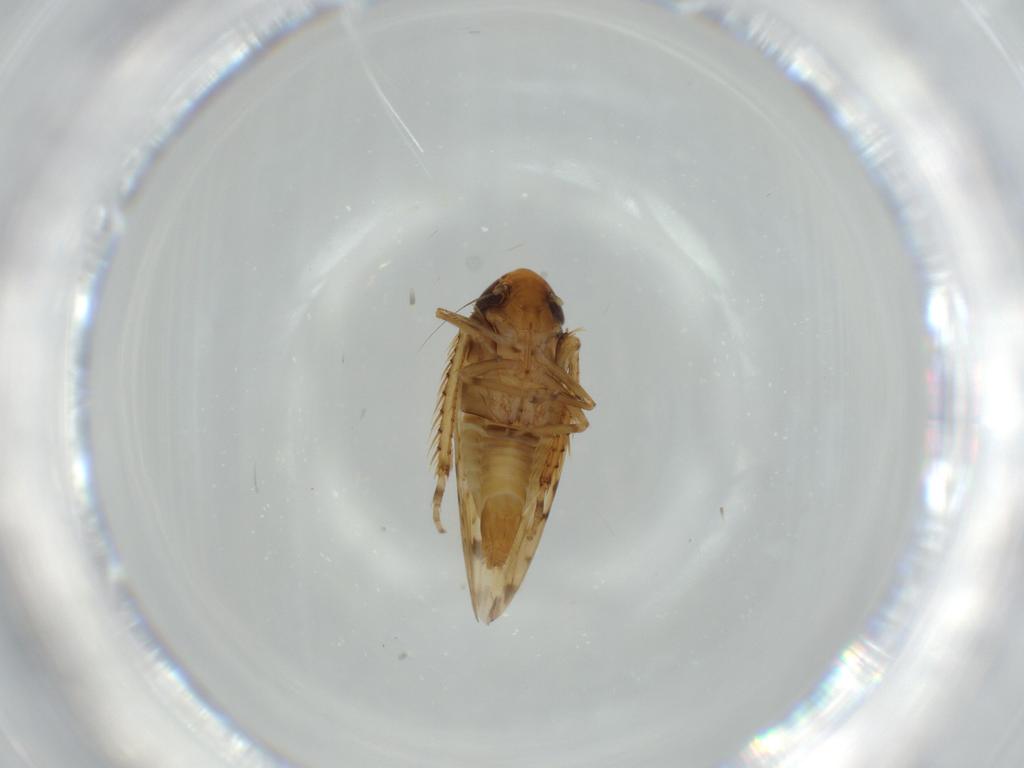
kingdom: Animalia
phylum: Arthropoda
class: Insecta
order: Hemiptera
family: Cicadellidae
